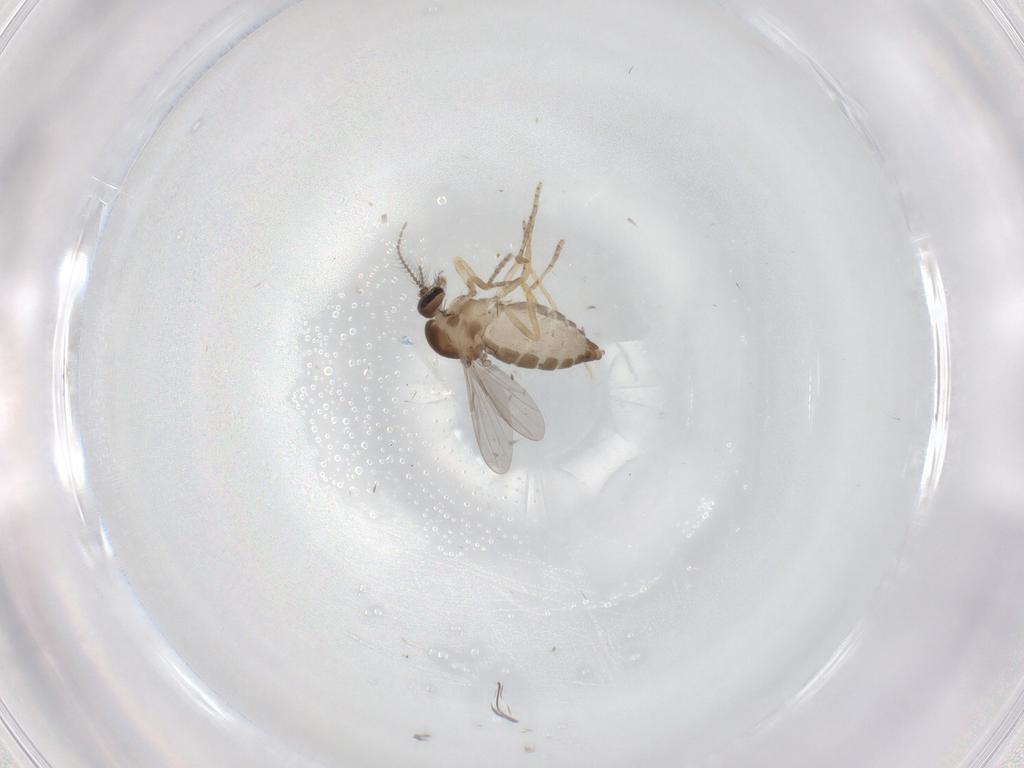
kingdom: Animalia
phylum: Arthropoda
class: Insecta
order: Diptera
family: Ceratopogonidae
